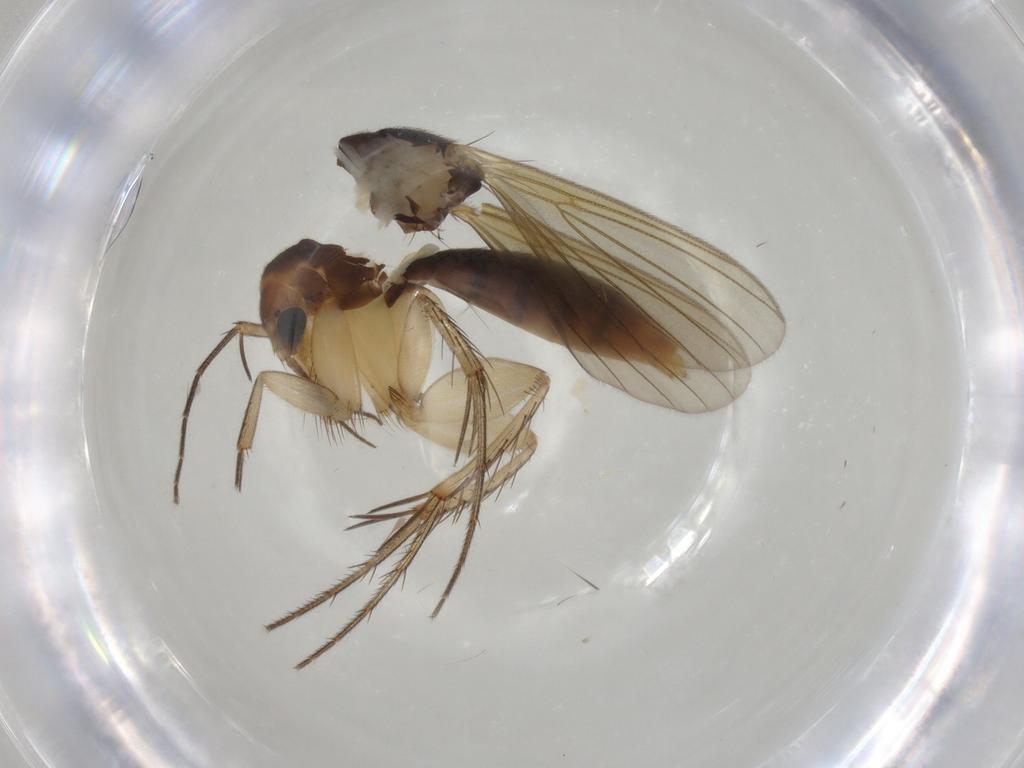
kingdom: Animalia
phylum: Arthropoda
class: Insecta
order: Diptera
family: Mycetophilidae
